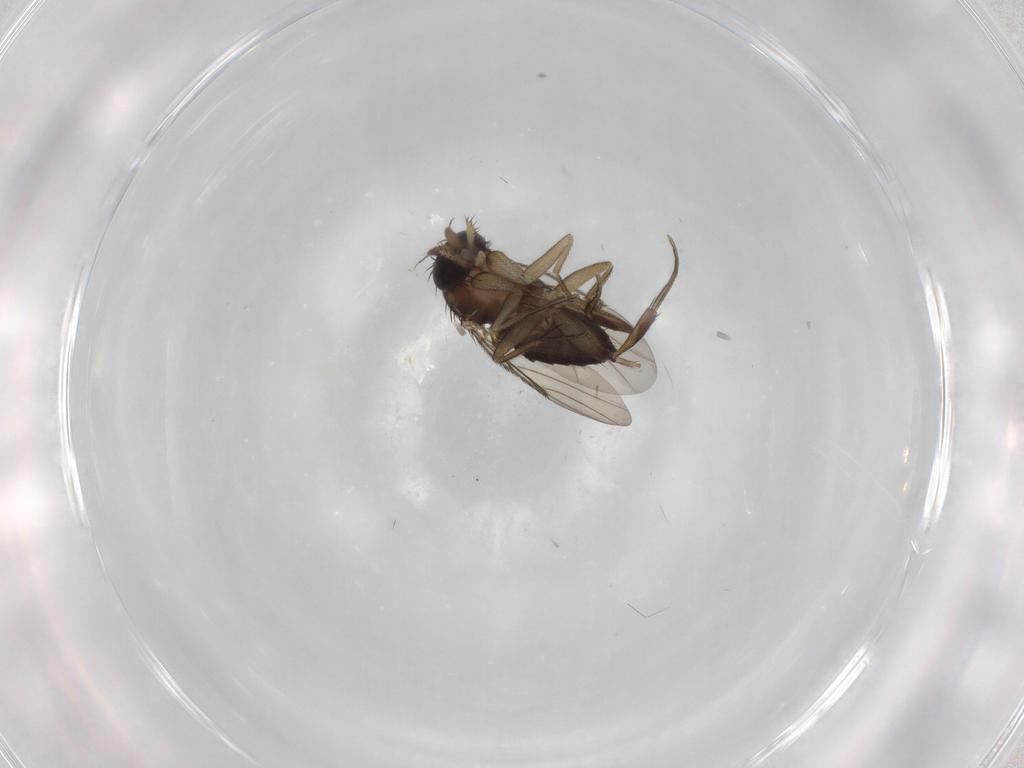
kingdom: Animalia
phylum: Arthropoda
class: Insecta
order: Diptera
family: Phoridae
